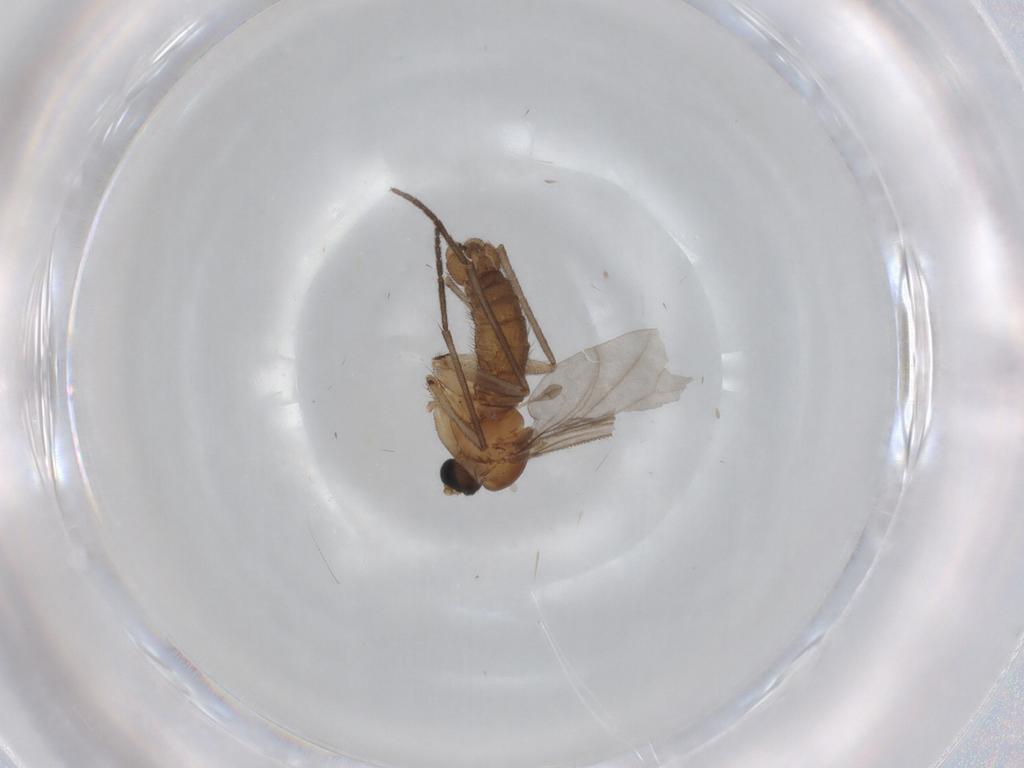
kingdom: Animalia
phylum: Arthropoda
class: Insecta
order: Diptera
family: Sciaridae
